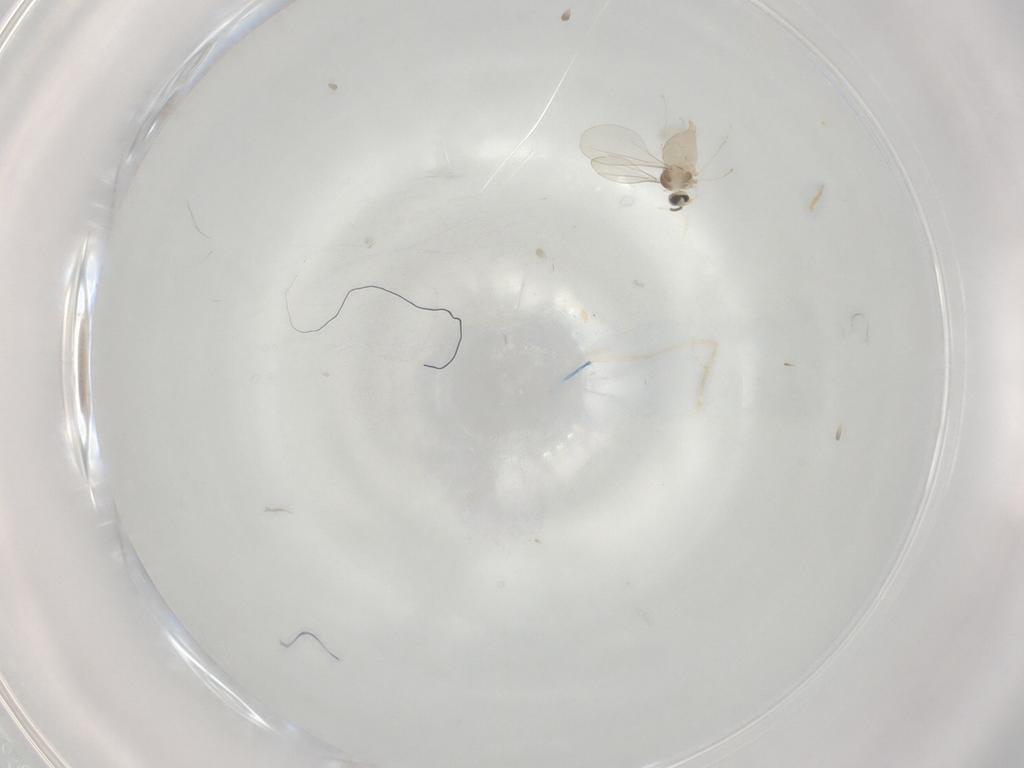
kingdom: Animalia
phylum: Arthropoda
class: Insecta
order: Diptera
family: Cecidomyiidae
